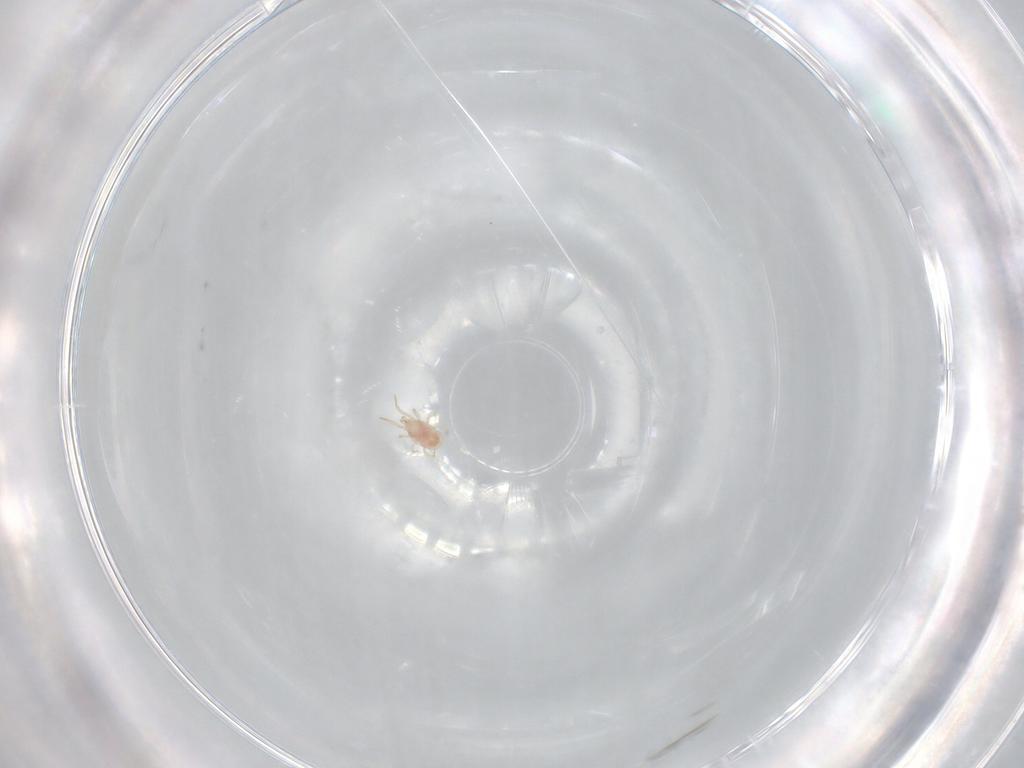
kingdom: Animalia
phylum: Arthropoda
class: Arachnida
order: Mesostigmata
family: Phytoseiidae
